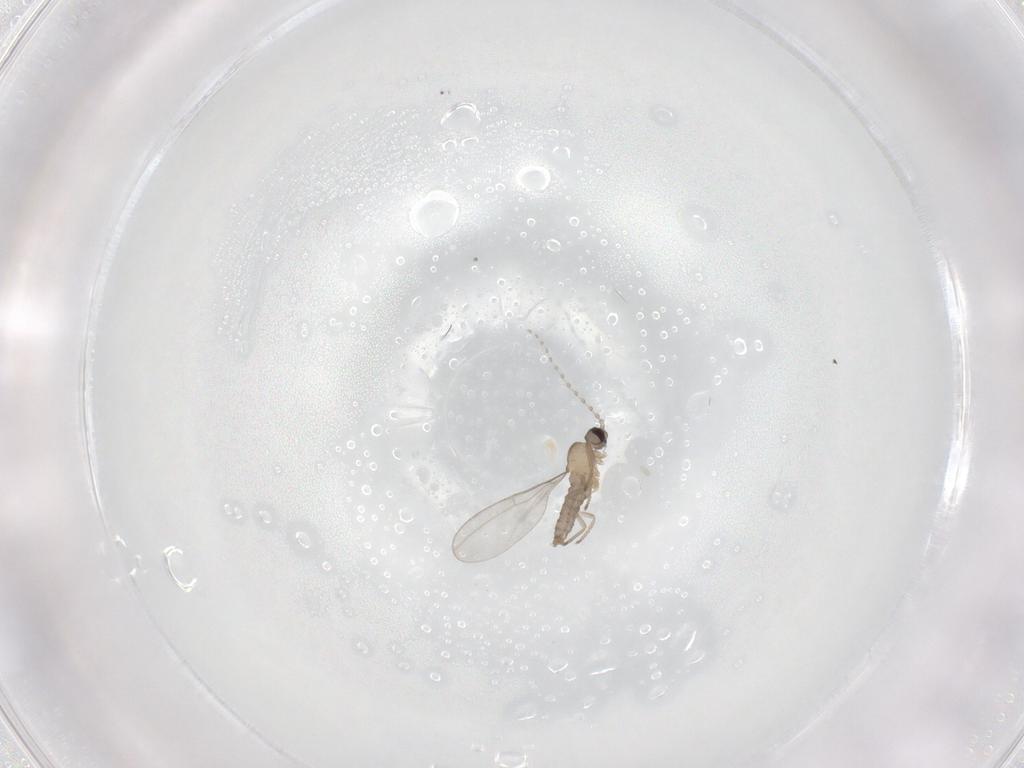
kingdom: Animalia
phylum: Arthropoda
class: Insecta
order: Diptera
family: Cecidomyiidae
